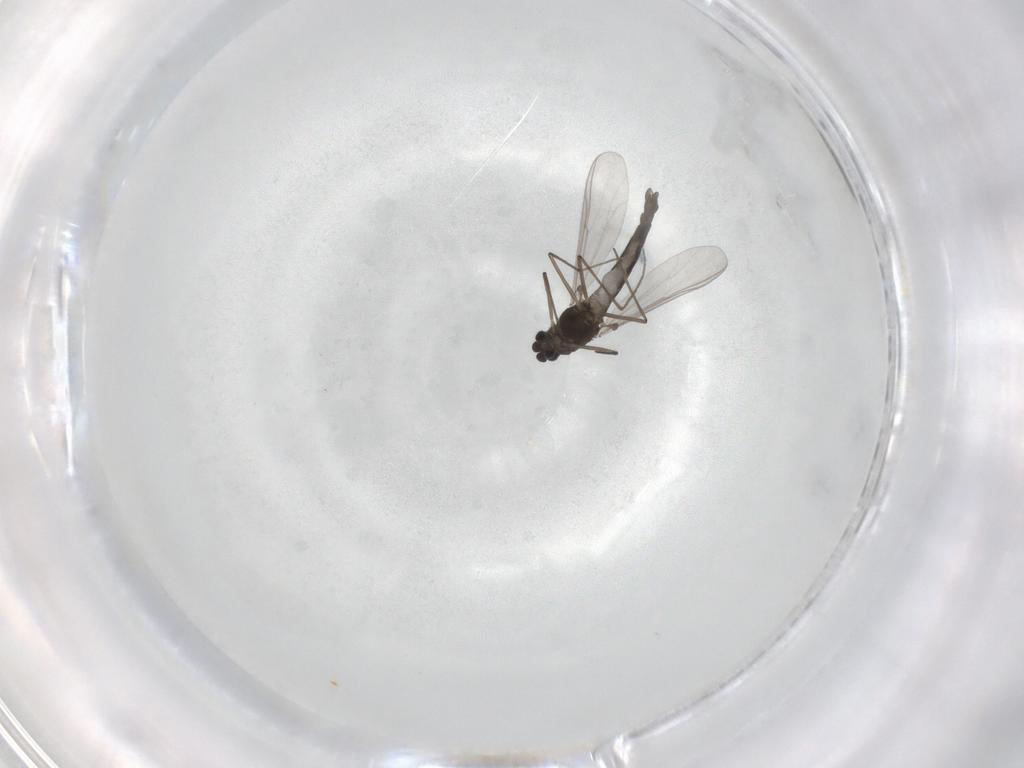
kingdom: Animalia
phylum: Arthropoda
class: Insecta
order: Diptera
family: Chironomidae
